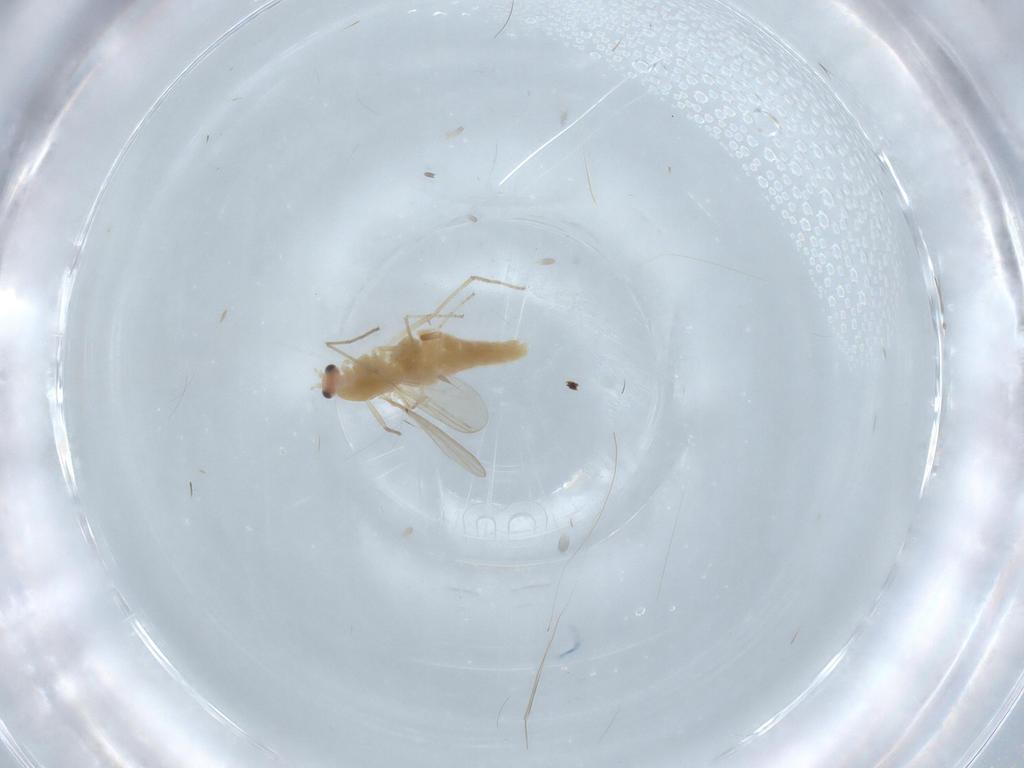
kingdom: Animalia
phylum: Arthropoda
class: Insecta
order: Diptera
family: Chironomidae
